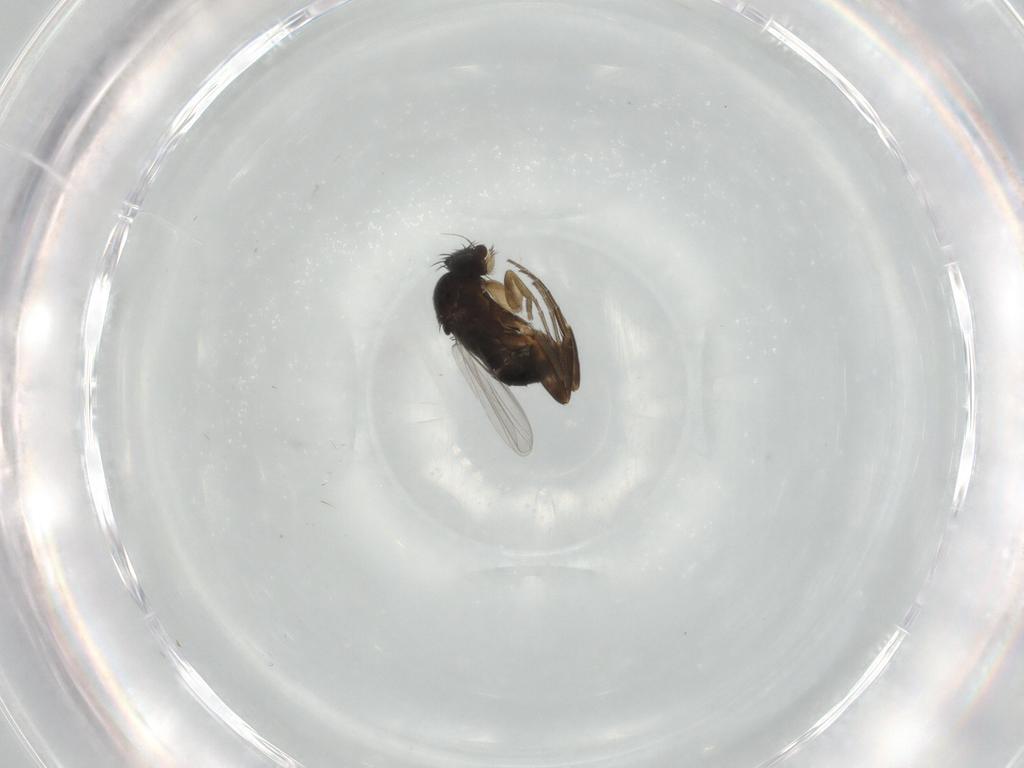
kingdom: Animalia
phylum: Arthropoda
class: Insecta
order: Diptera
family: Phoridae
